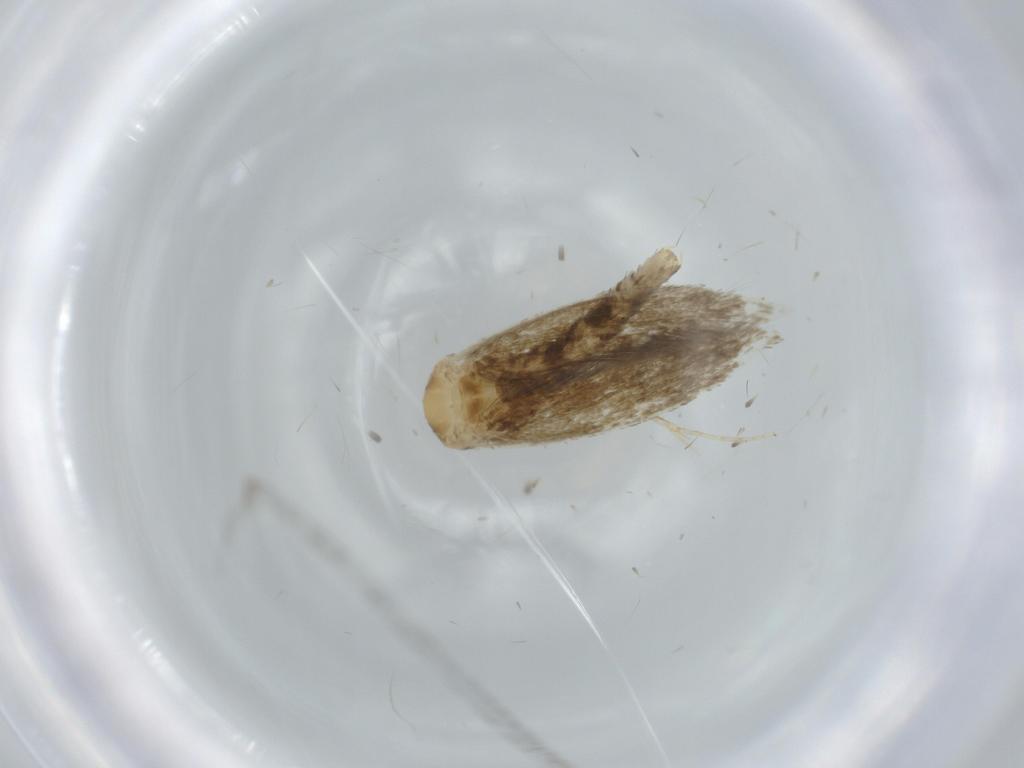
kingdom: Animalia
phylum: Arthropoda
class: Insecta
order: Lepidoptera
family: Tineidae
